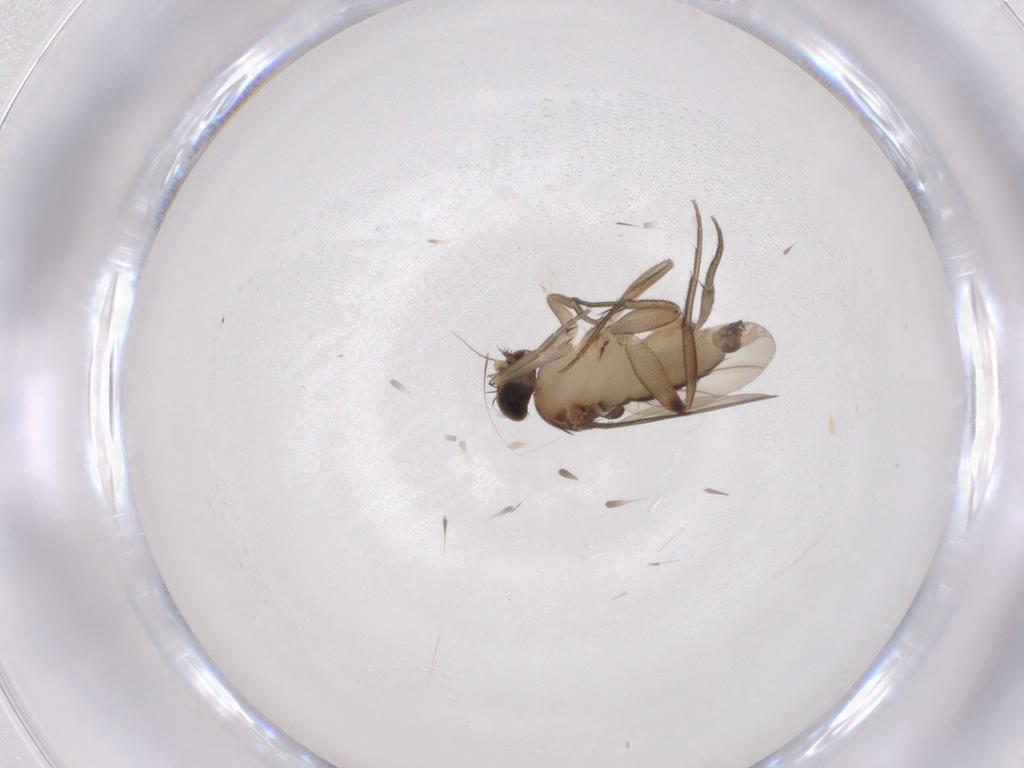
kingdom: Animalia
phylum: Arthropoda
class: Insecta
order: Diptera
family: Phoridae
